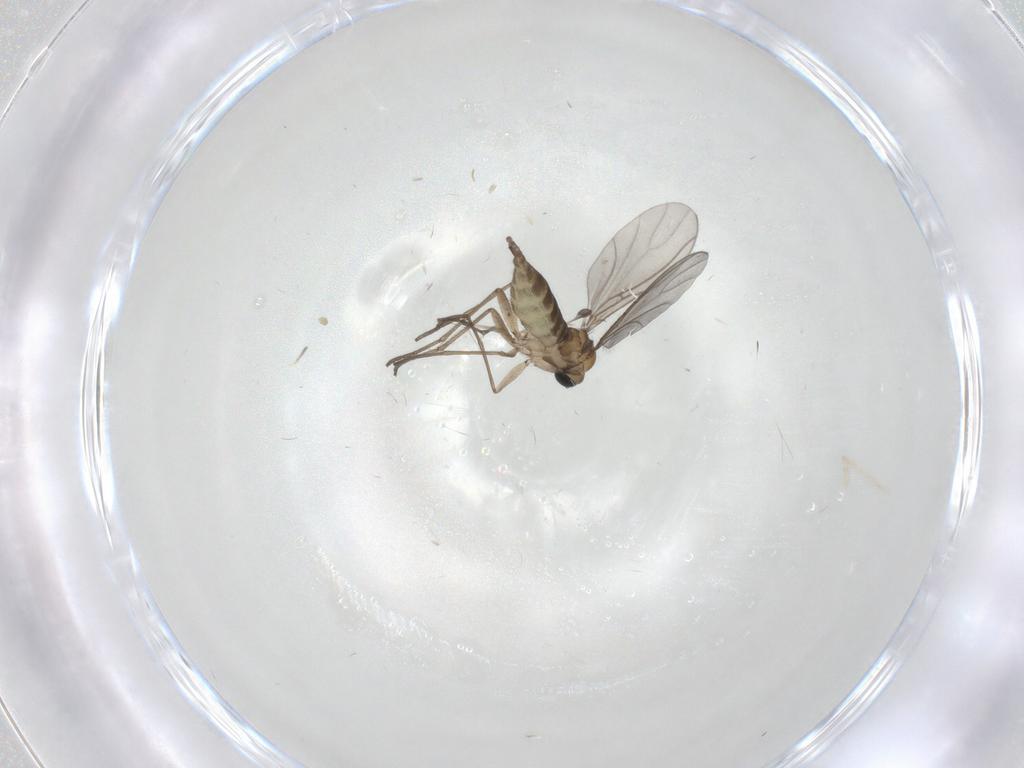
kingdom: Animalia
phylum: Arthropoda
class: Insecta
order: Diptera
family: Sciaridae
